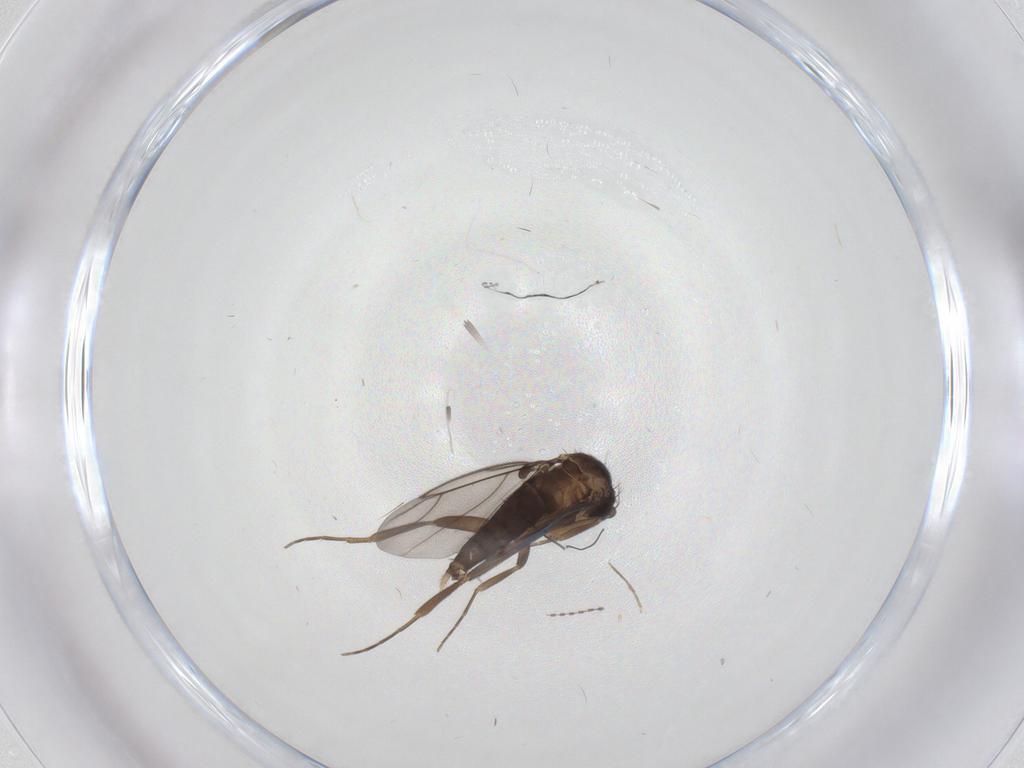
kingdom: Animalia
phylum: Arthropoda
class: Insecta
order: Diptera
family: Chironomidae
